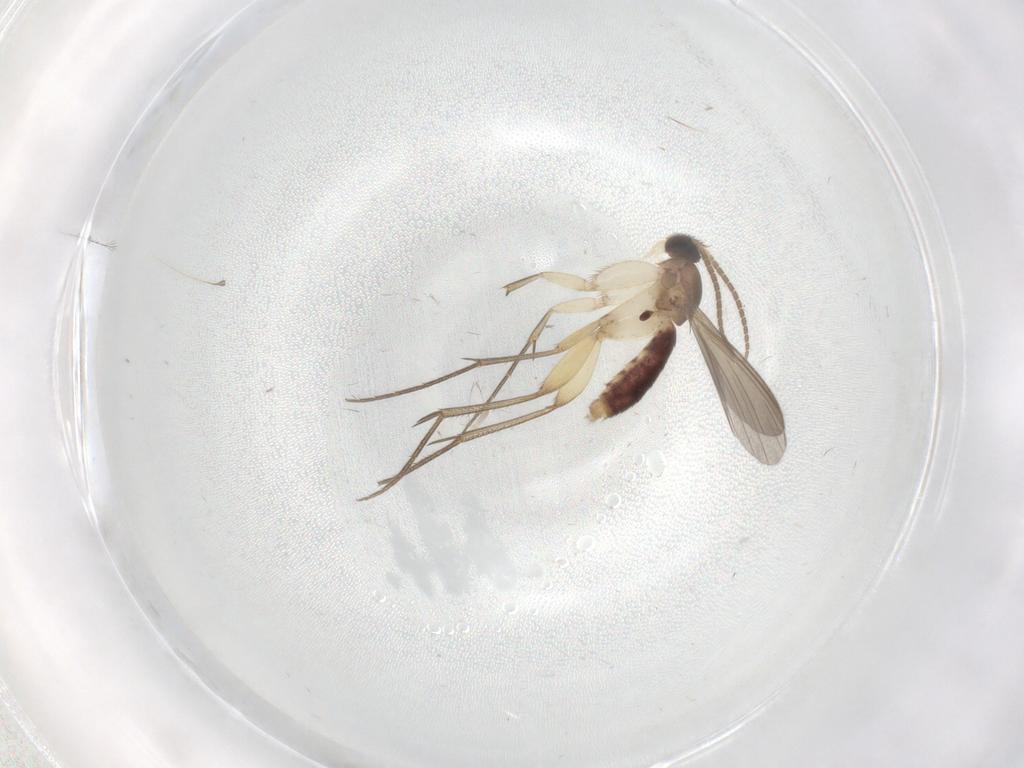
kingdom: Animalia
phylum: Arthropoda
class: Insecta
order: Diptera
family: Mycetophilidae
